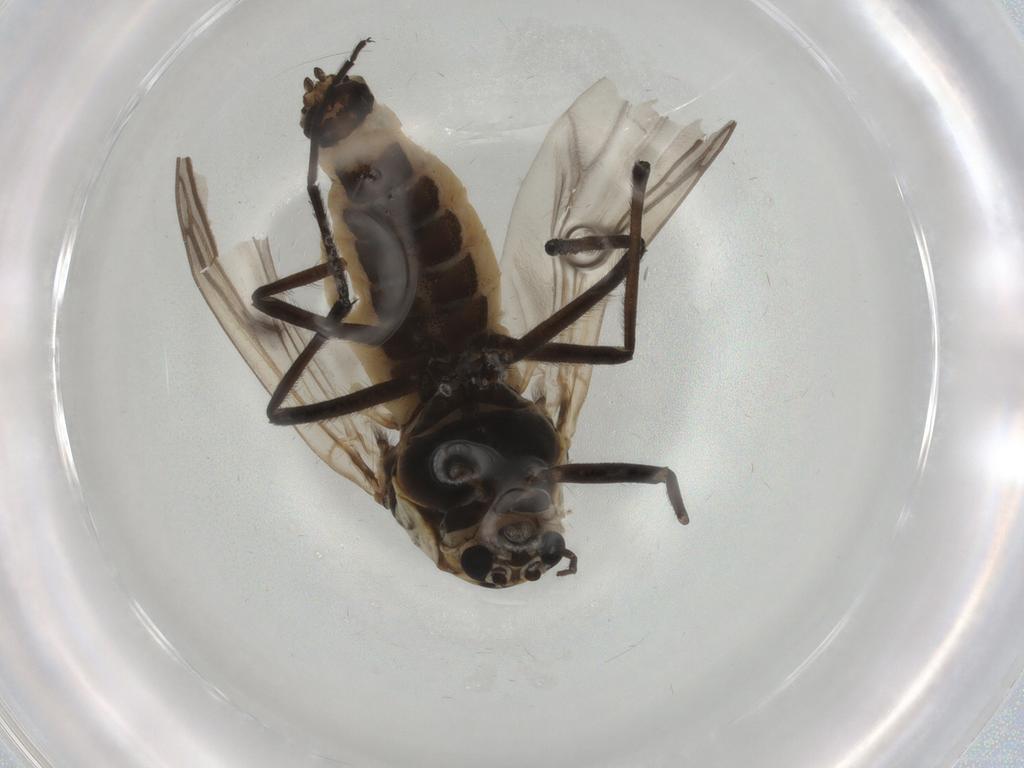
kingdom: Animalia
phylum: Arthropoda
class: Insecta
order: Diptera
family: Chironomidae
